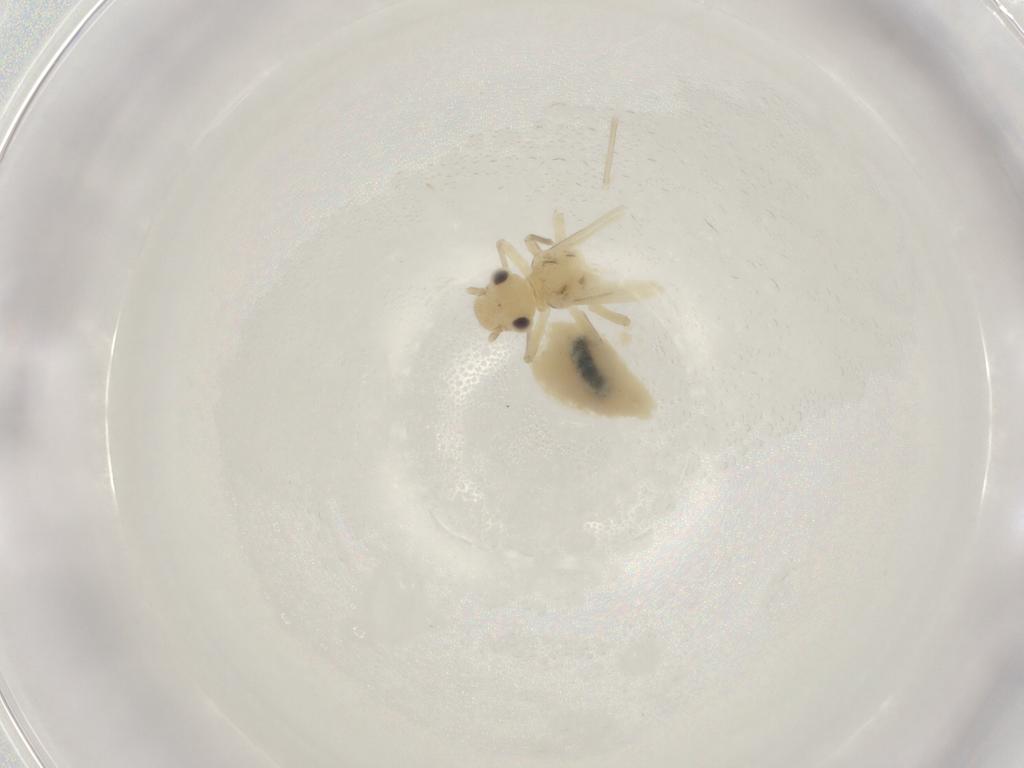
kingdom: Animalia
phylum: Arthropoda
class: Insecta
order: Psocodea
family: Caeciliusidae
